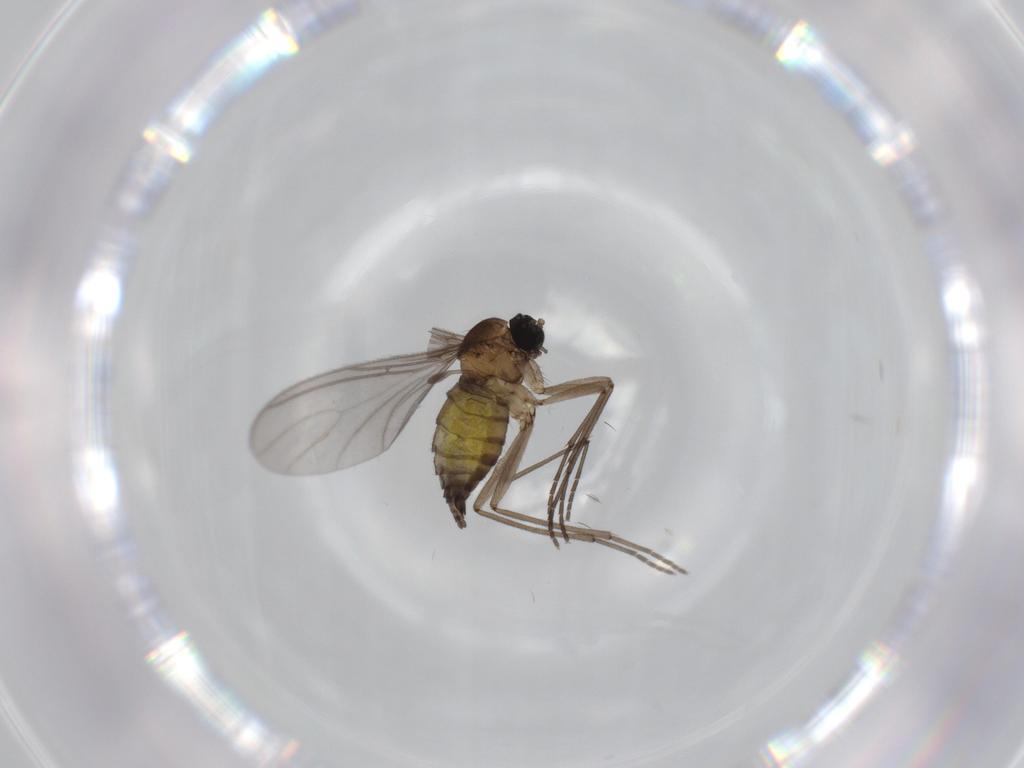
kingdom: Animalia
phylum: Arthropoda
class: Insecta
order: Diptera
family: Sciaridae
